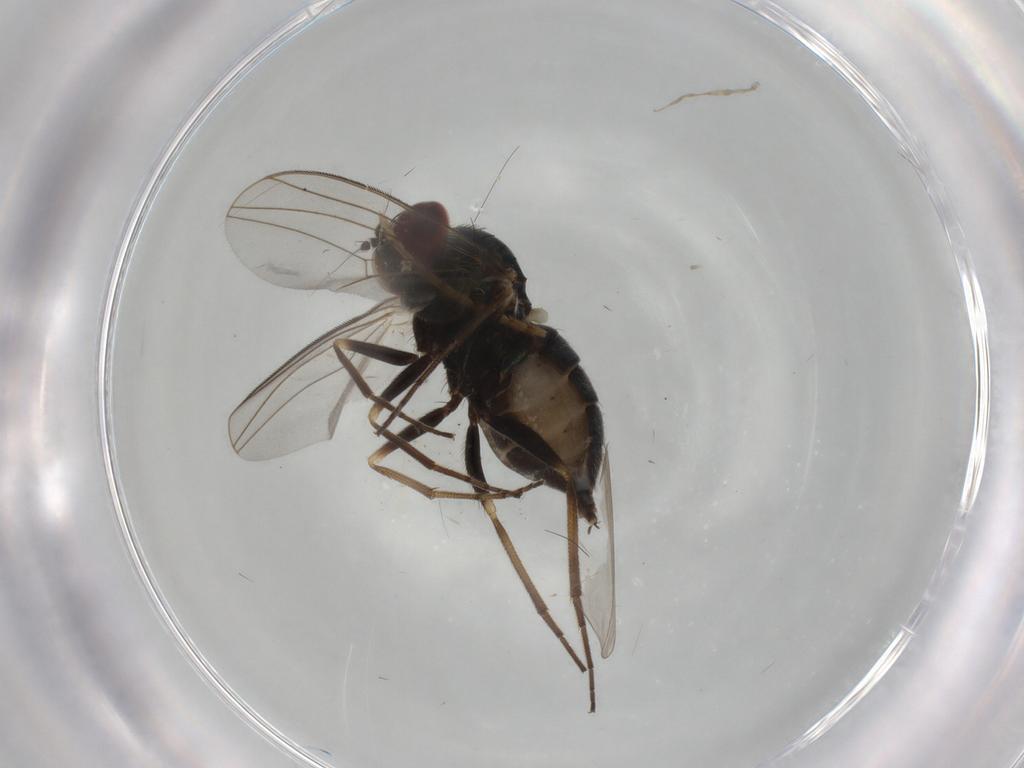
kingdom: Animalia
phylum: Arthropoda
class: Insecta
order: Diptera
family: Dolichopodidae
